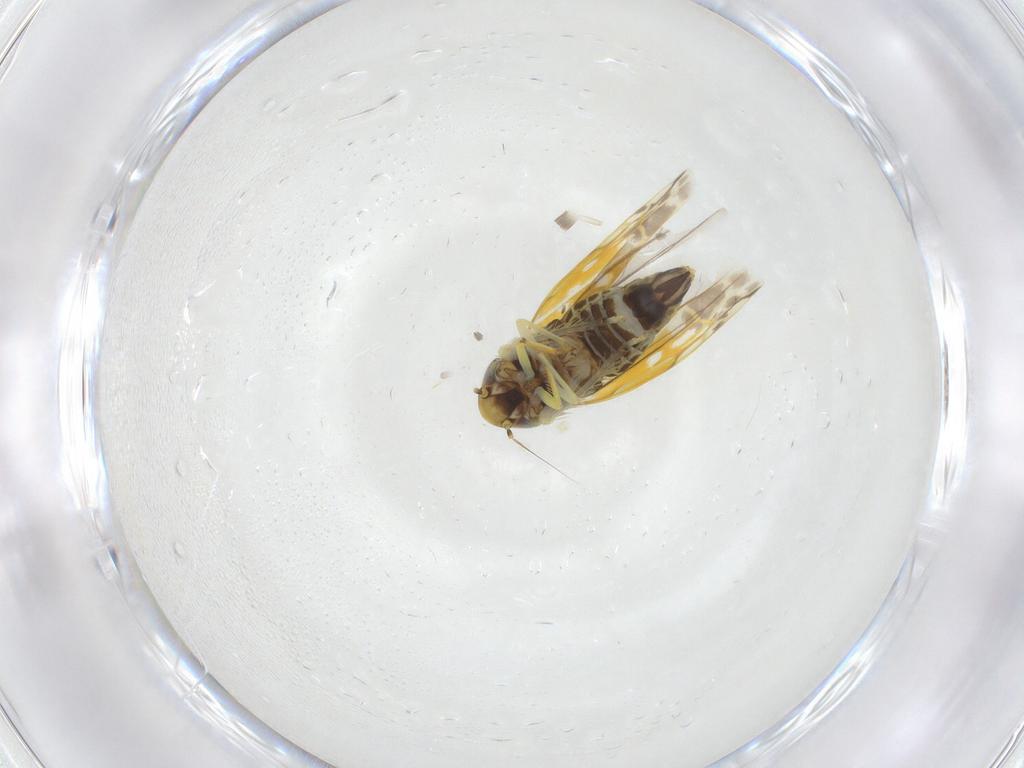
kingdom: Animalia
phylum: Arthropoda
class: Insecta
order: Hemiptera
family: Cicadellidae
